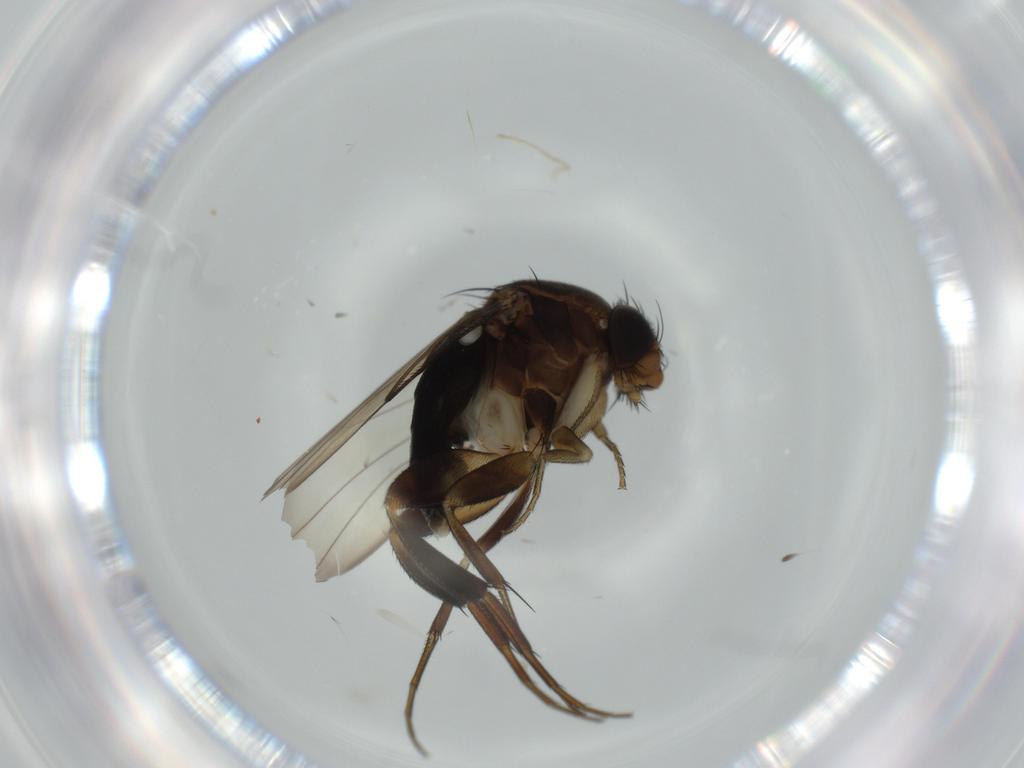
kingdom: Animalia
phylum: Arthropoda
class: Insecta
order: Diptera
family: Phoridae
